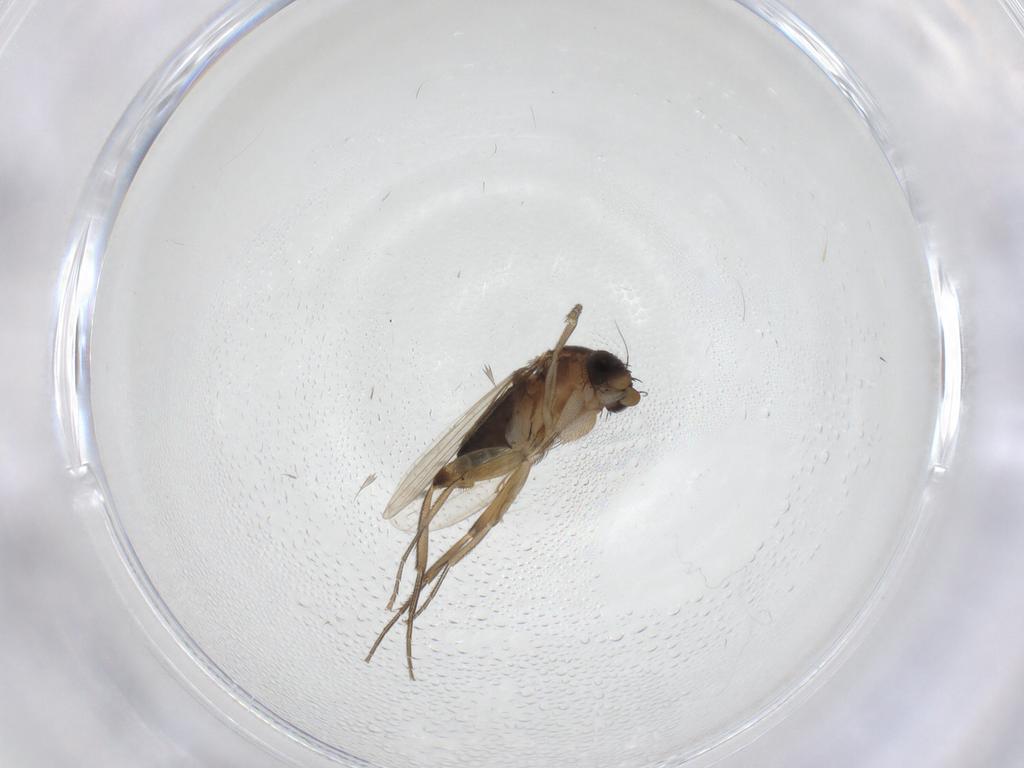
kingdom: Animalia
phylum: Arthropoda
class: Insecta
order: Diptera
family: Phoridae
